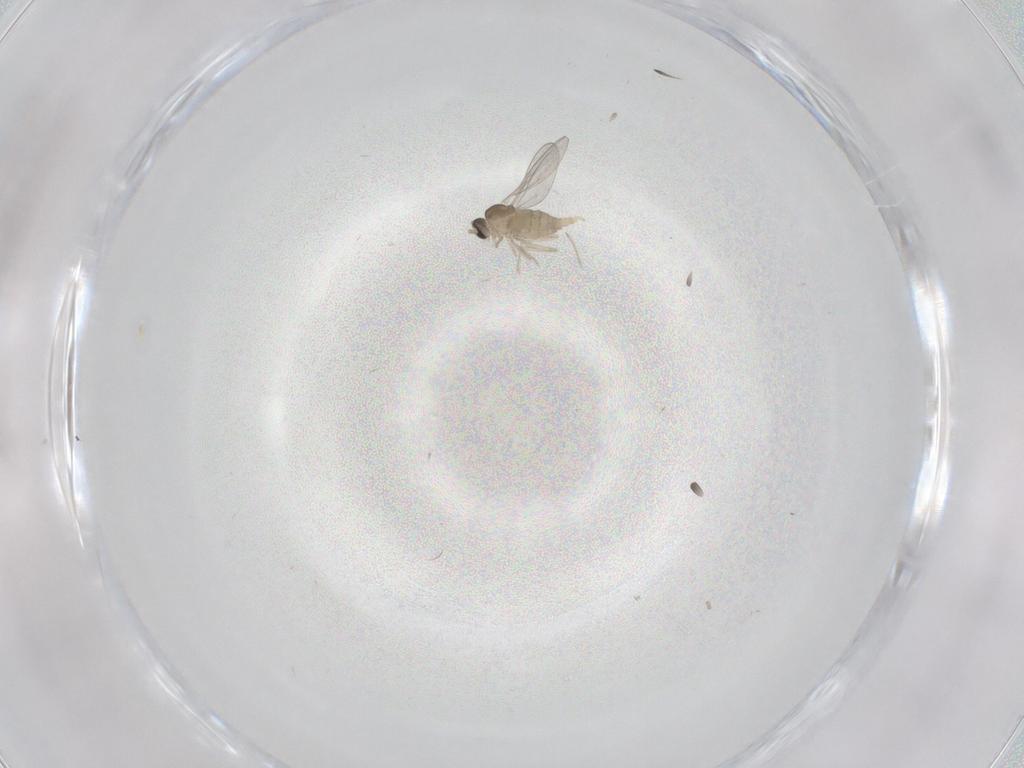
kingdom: Animalia
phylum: Arthropoda
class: Insecta
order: Diptera
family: Cecidomyiidae
